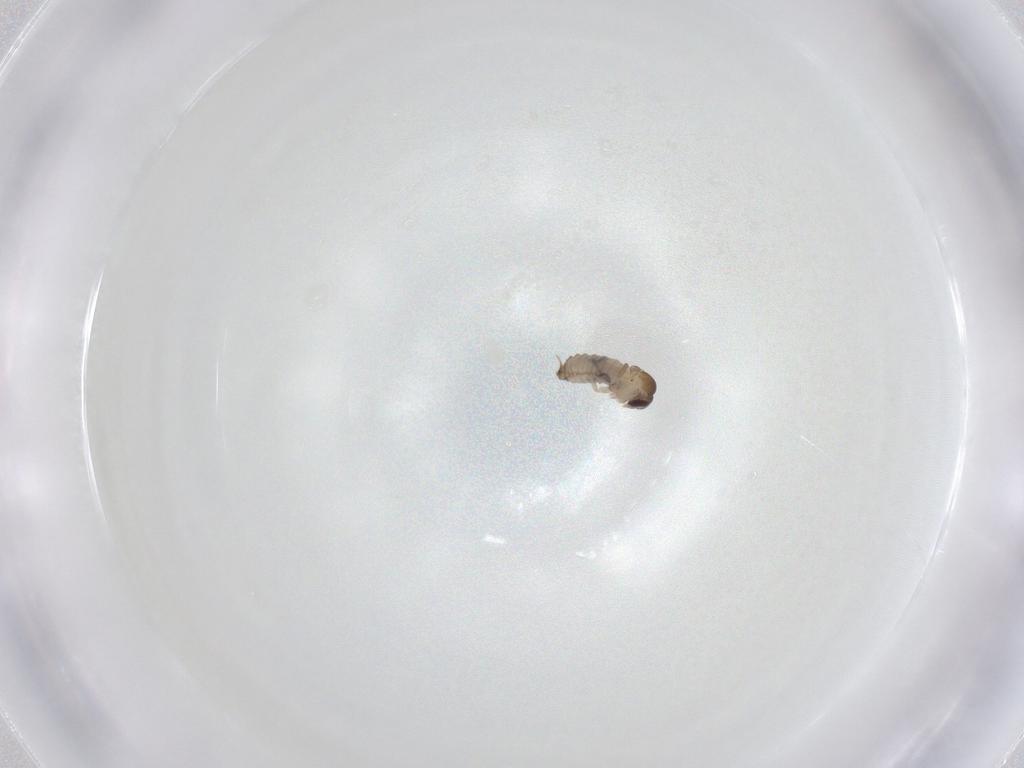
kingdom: Animalia
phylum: Arthropoda
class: Insecta
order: Diptera
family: Psychodidae
